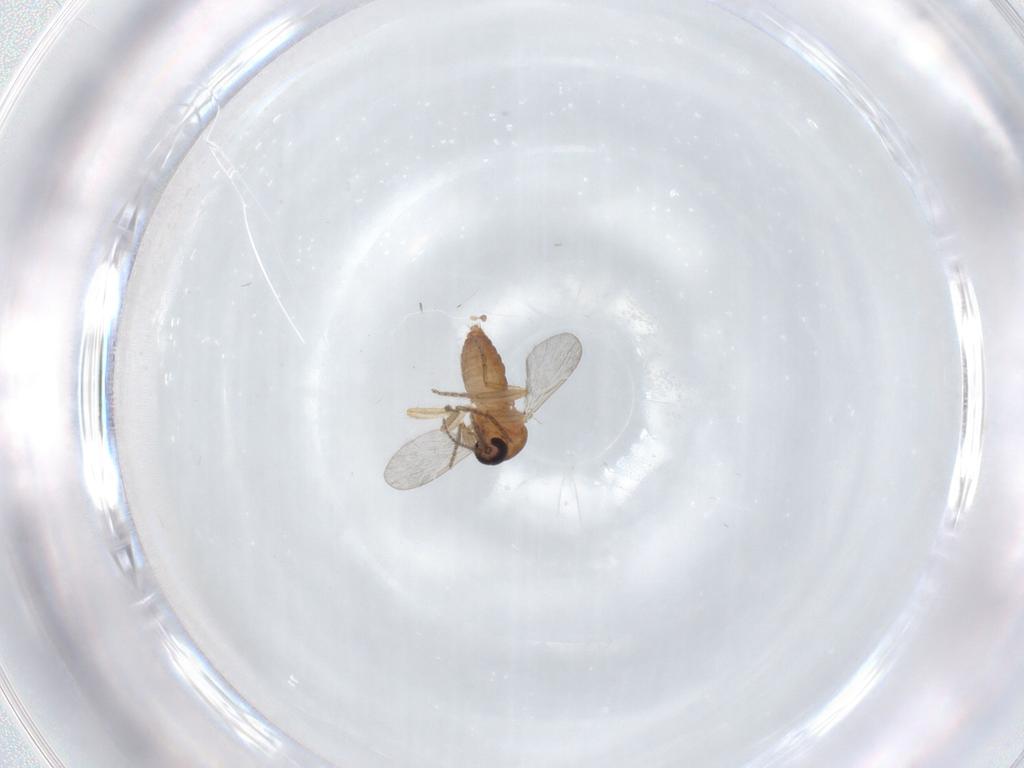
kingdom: Animalia
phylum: Arthropoda
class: Insecta
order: Diptera
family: Ceratopogonidae
